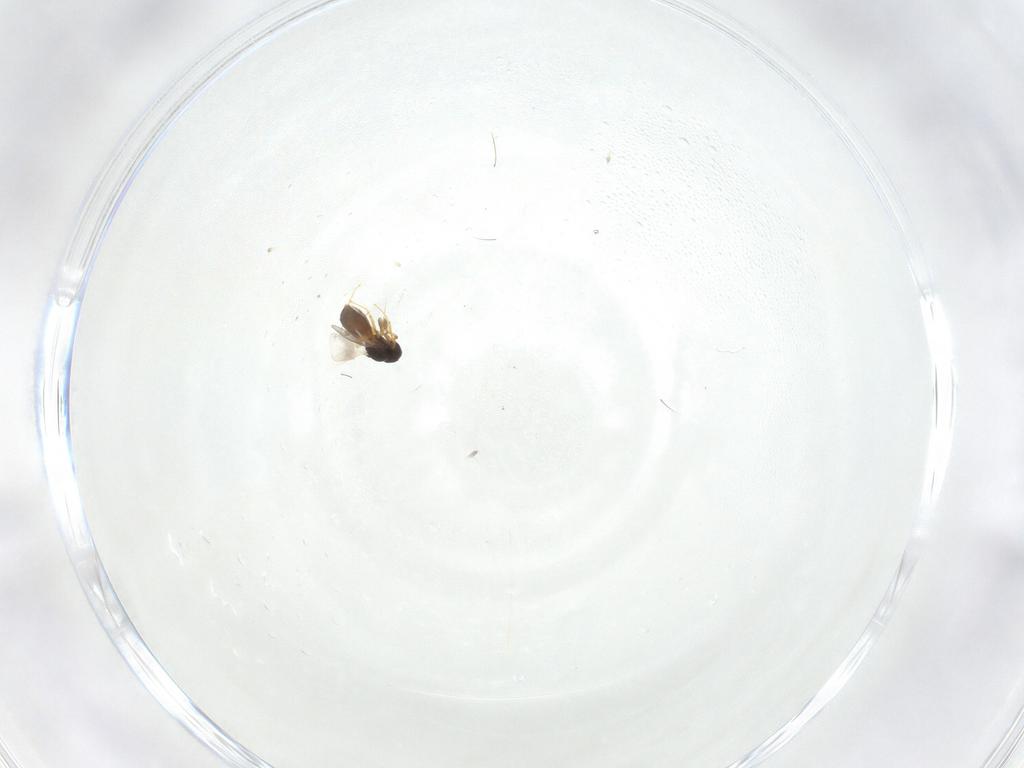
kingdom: Animalia
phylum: Arthropoda
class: Insecta
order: Hymenoptera
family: Platygastridae
